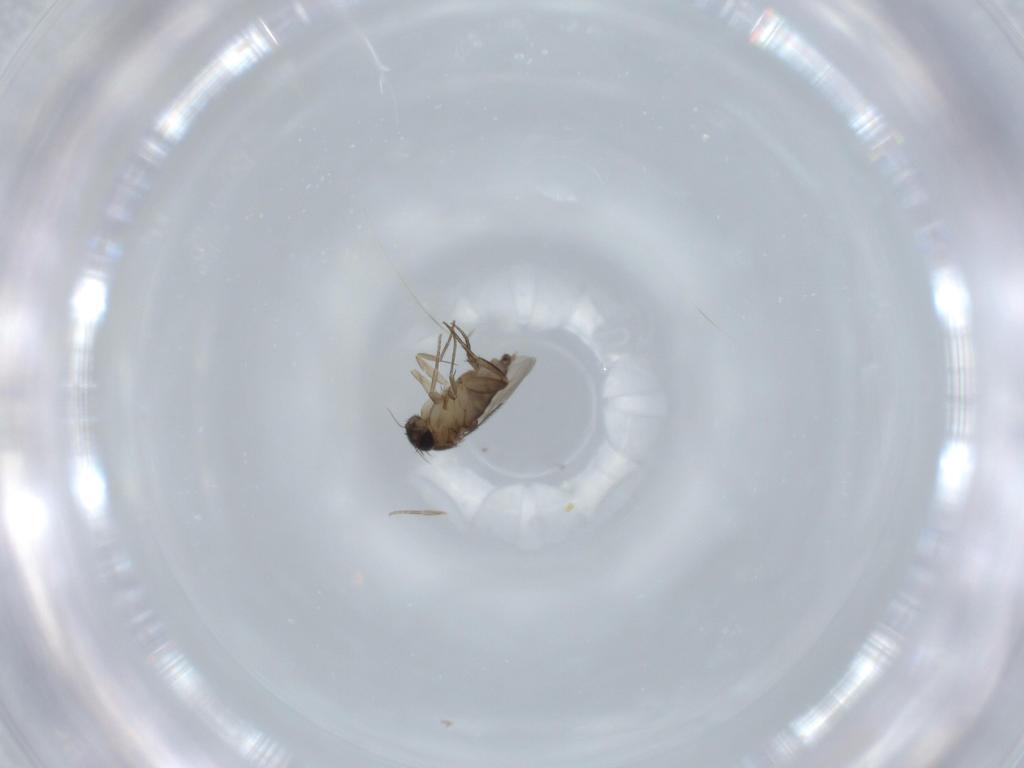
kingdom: Animalia
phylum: Arthropoda
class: Insecta
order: Diptera
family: Phoridae
